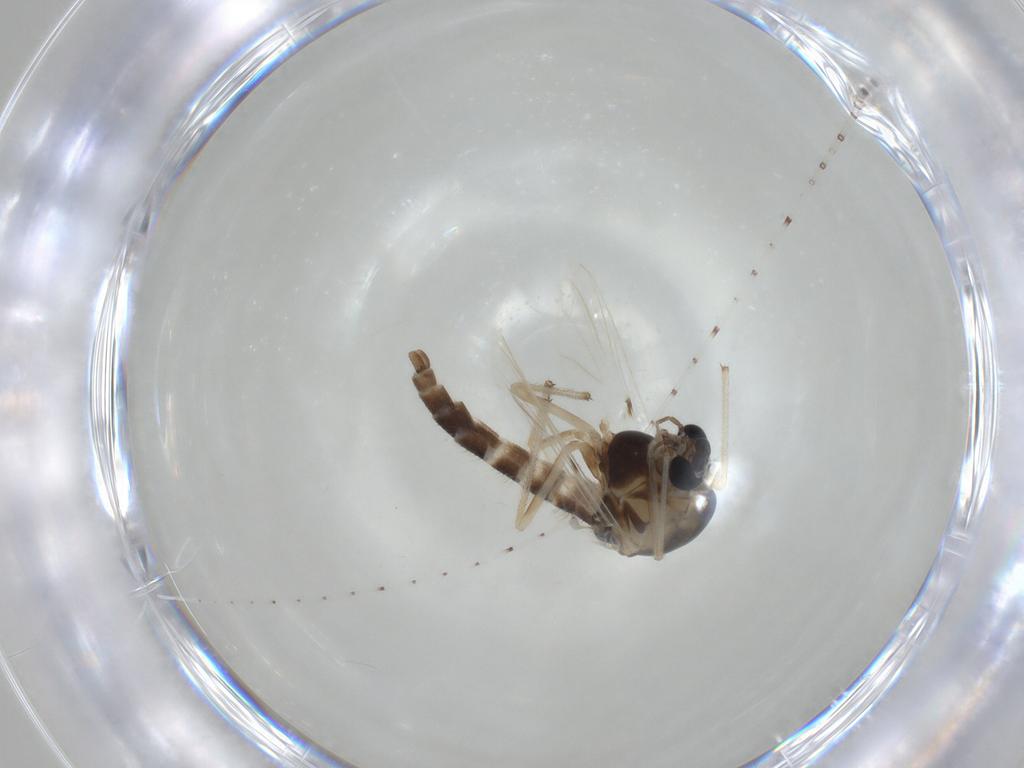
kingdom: Animalia
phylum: Arthropoda
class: Insecta
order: Diptera
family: Chironomidae
